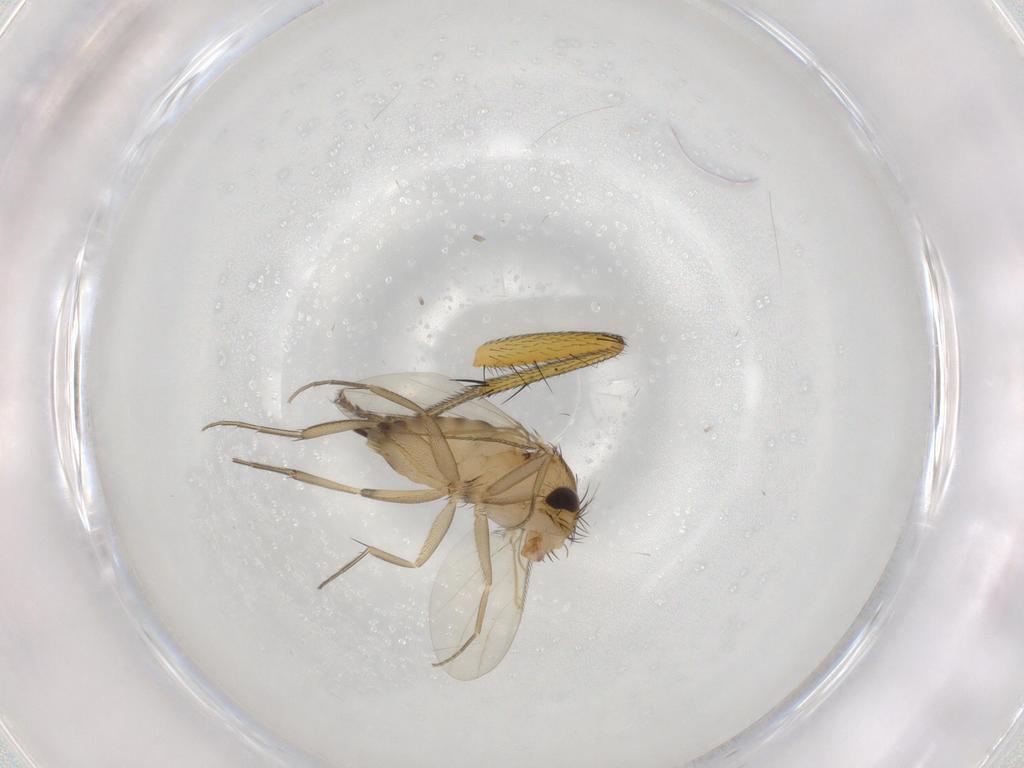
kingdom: Animalia
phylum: Arthropoda
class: Insecta
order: Diptera
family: Phoridae
